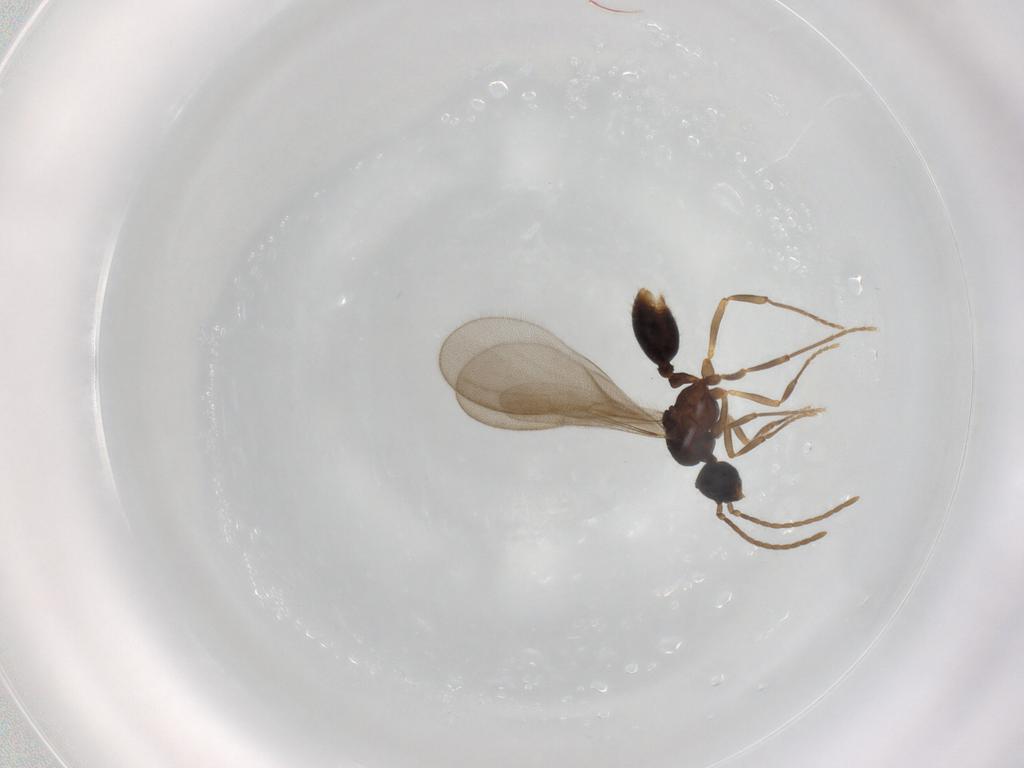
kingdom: Animalia
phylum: Arthropoda
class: Insecta
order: Hymenoptera
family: Formicidae
